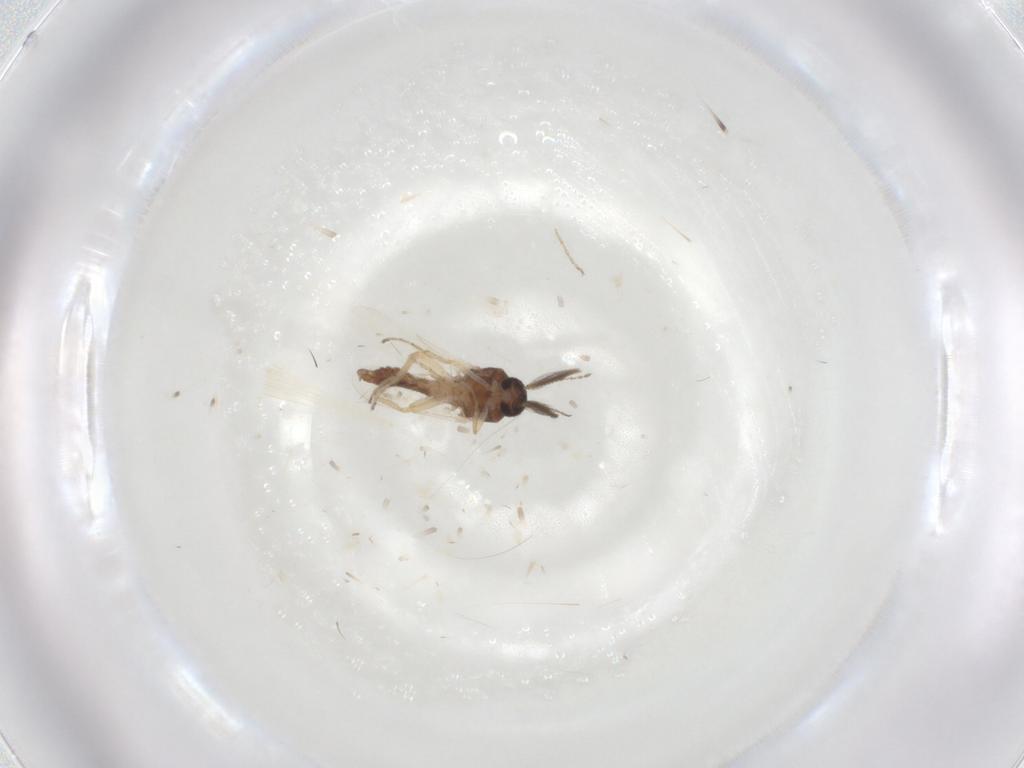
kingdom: Animalia
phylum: Arthropoda
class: Insecta
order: Diptera
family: Ceratopogonidae
